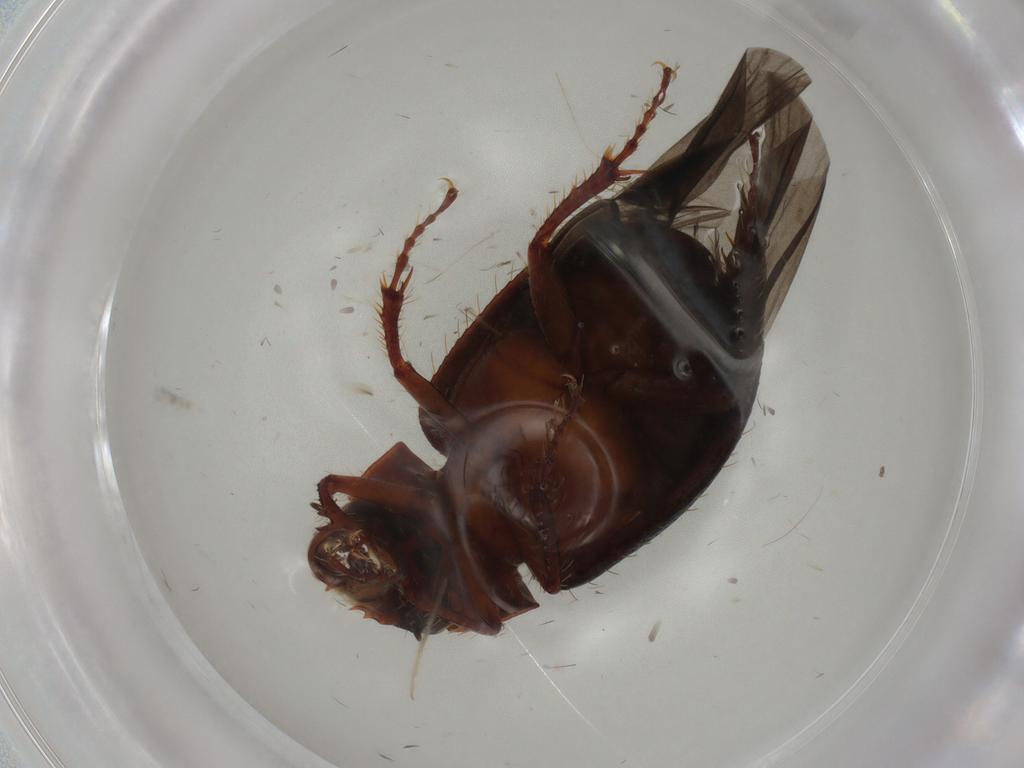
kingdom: Animalia
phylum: Arthropoda
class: Insecta
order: Coleoptera
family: Hybosoridae
